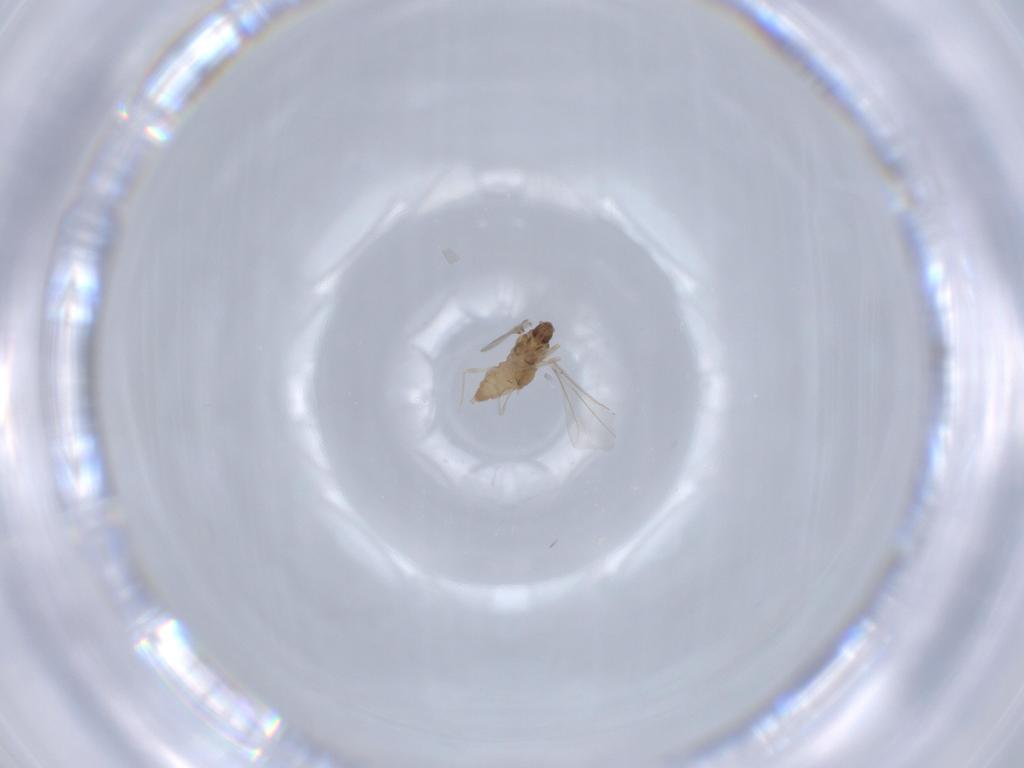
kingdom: Animalia
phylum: Arthropoda
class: Insecta
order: Diptera
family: Cecidomyiidae
